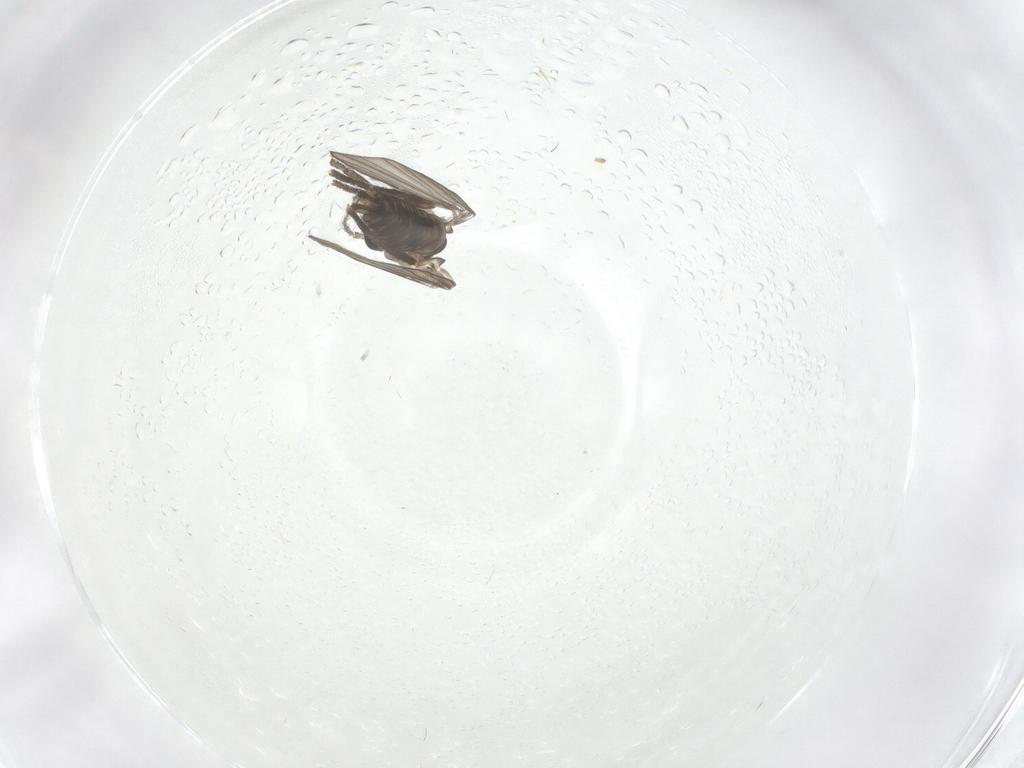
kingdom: Animalia
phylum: Arthropoda
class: Insecta
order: Diptera
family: Psychodidae
